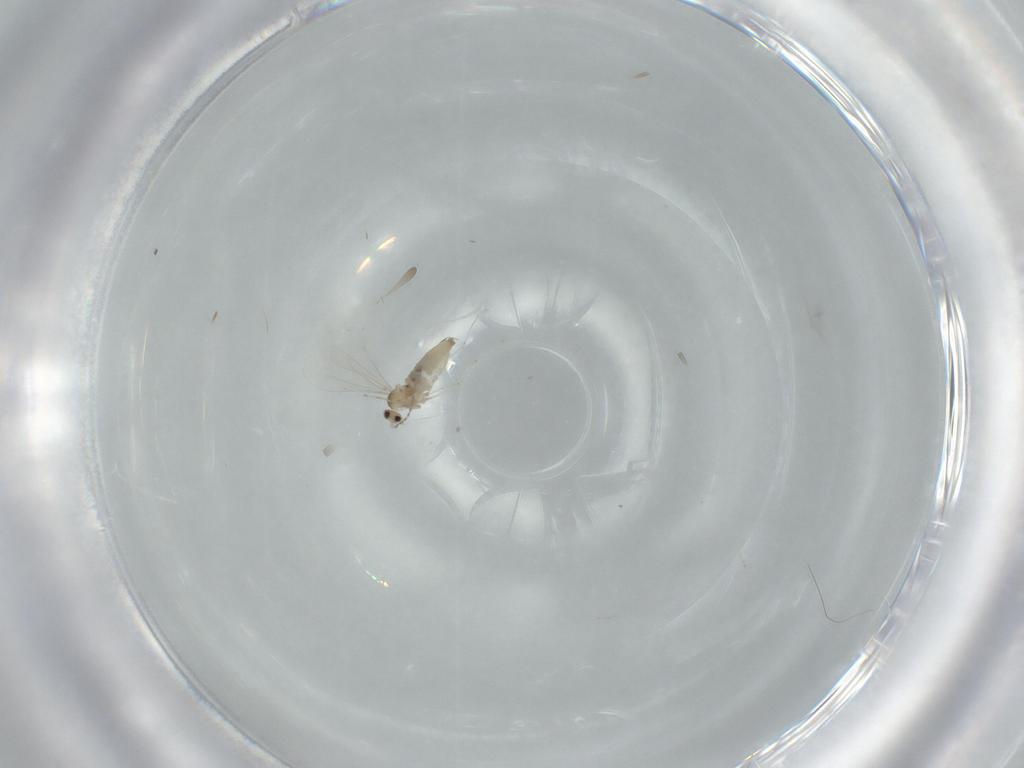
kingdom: Animalia
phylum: Arthropoda
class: Insecta
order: Diptera
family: Cecidomyiidae
